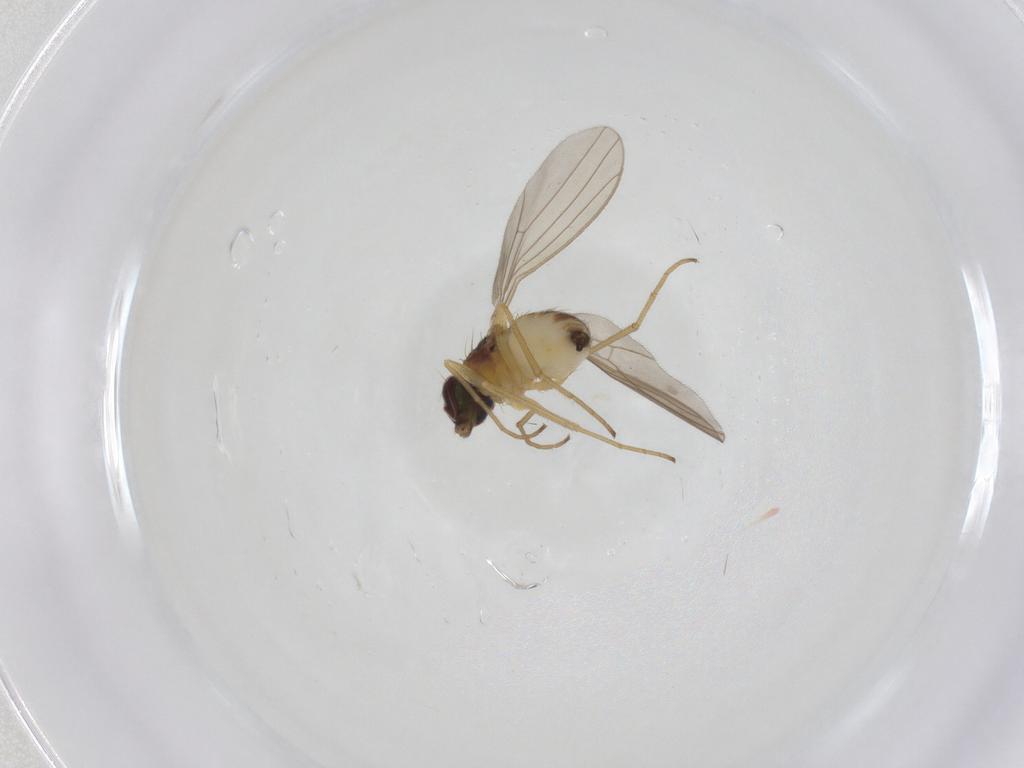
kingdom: Animalia
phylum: Arthropoda
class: Insecta
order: Diptera
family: Dolichopodidae
